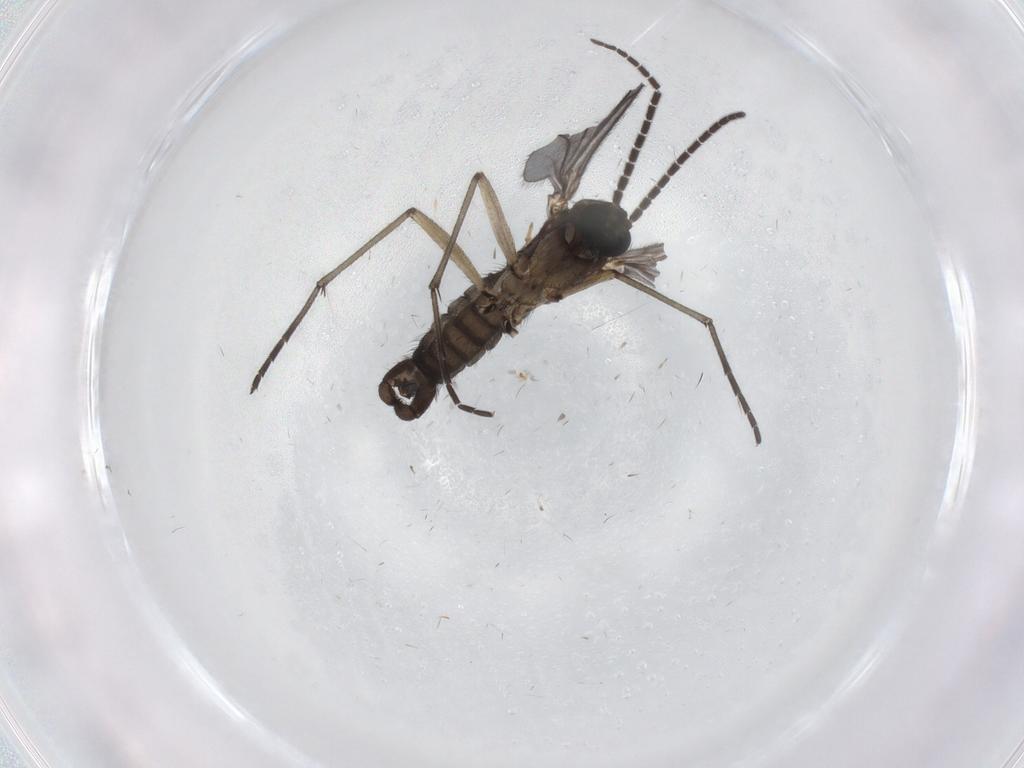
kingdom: Animalia
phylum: Arthropoda
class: Insecta
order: Diptera
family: Sciaridae
